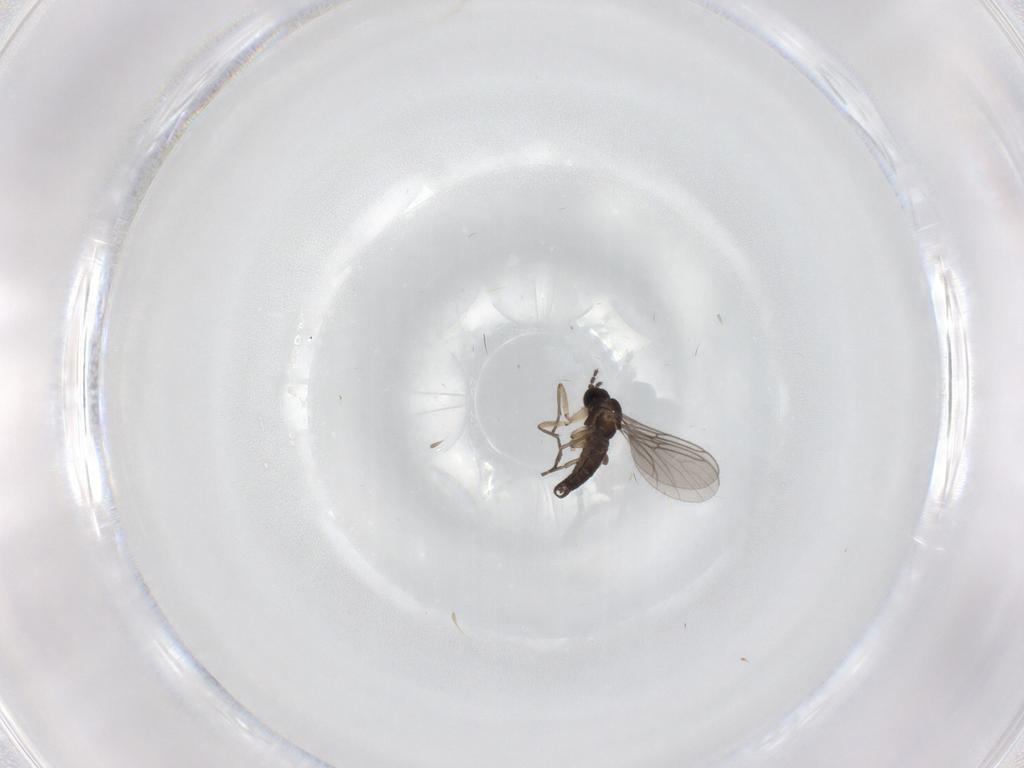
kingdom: Animalia
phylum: Arthropoda
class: Insecta
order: Diptera
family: Sciaridae
